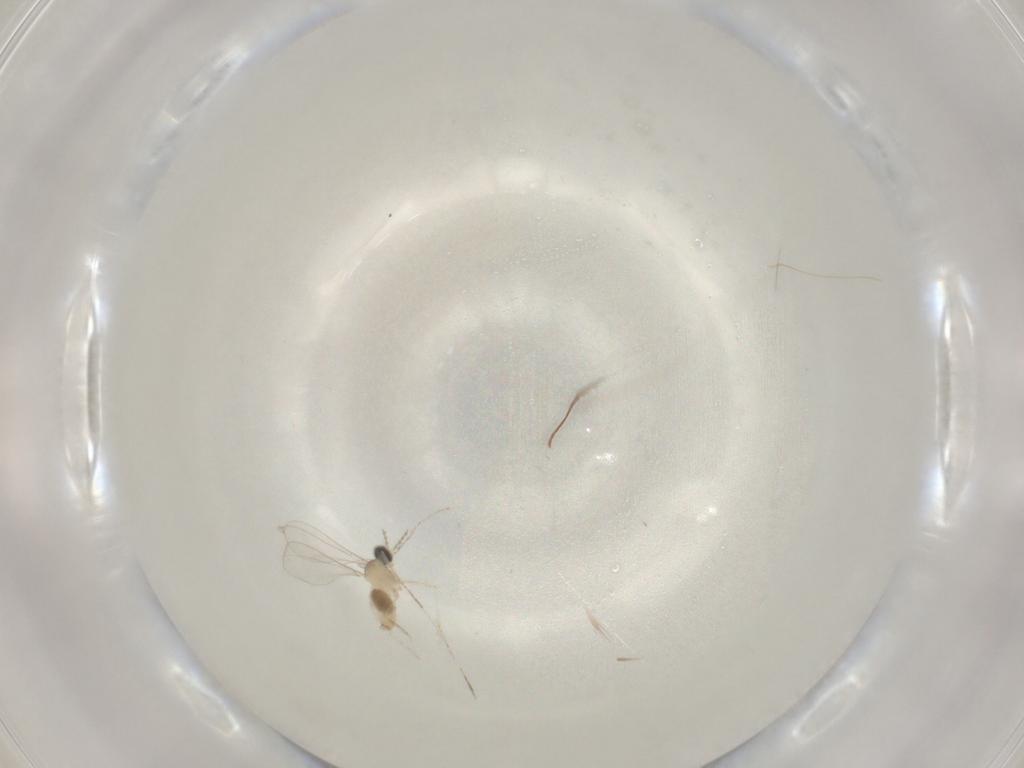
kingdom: Animalia
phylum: Arthropoda
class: Insecta
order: Diptera
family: Cecidomyiidae
